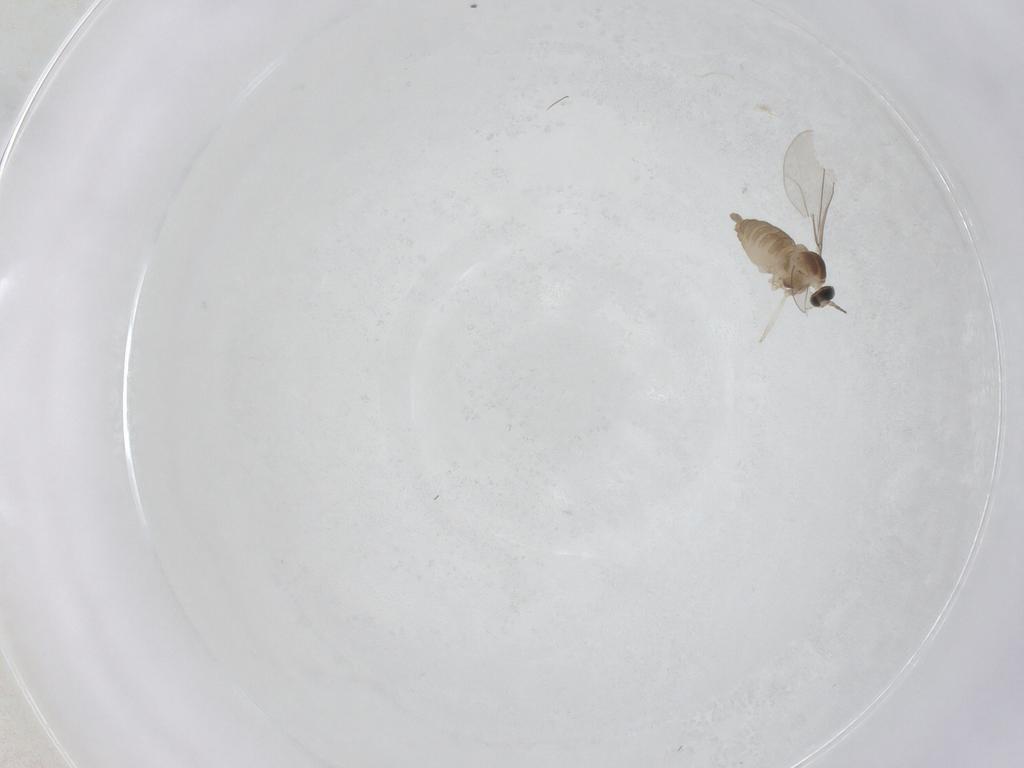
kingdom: Animalia
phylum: Arthropoda
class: Insecta
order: Diptera
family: Cecidomyiidae
